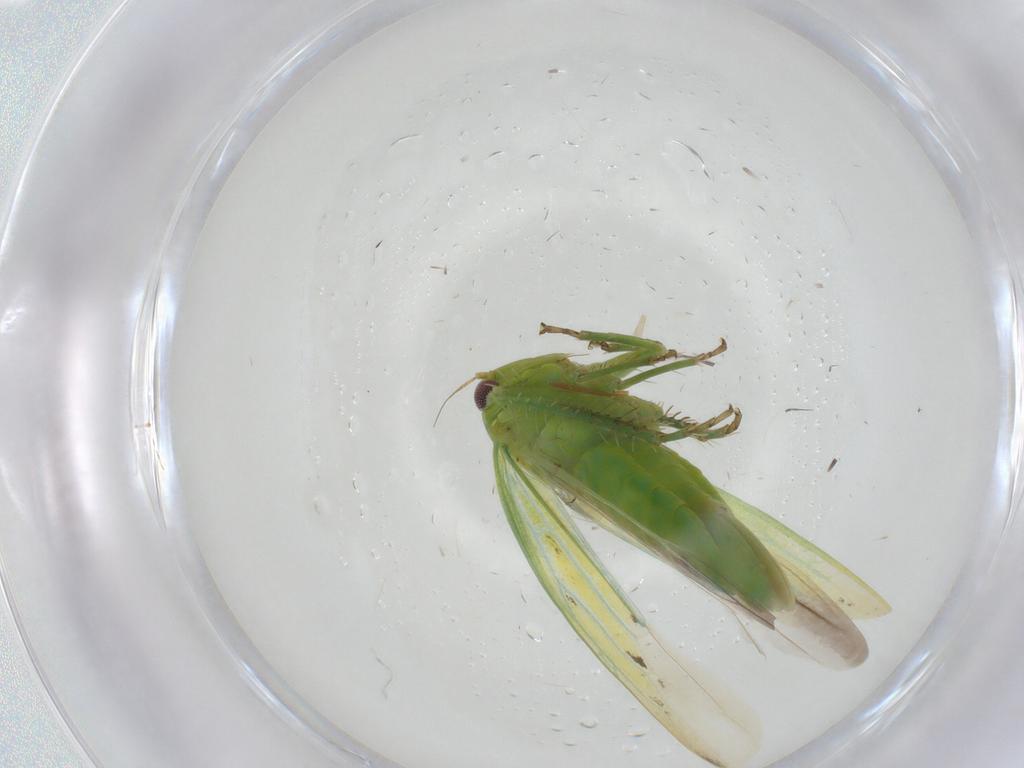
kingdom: Animalia
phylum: Arthropoda
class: Insecta
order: Hemiptera
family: Cicadellidae
